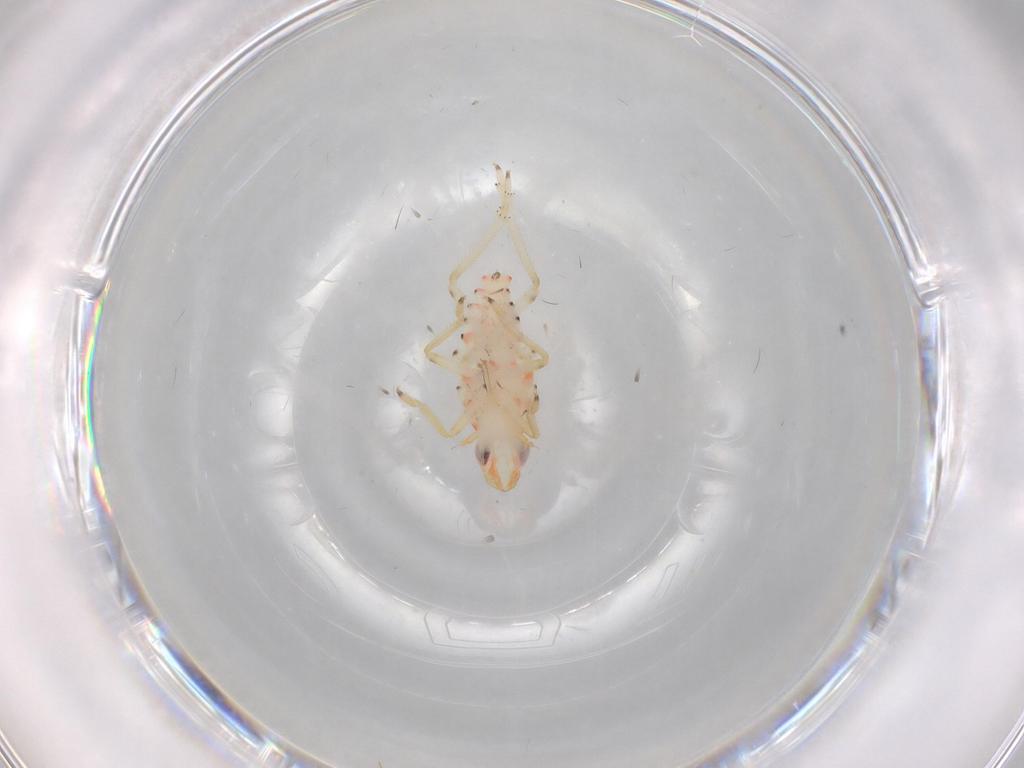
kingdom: Animalia
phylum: Arthropoda
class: Insecta
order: Hemiptera
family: Tropiduchidae
